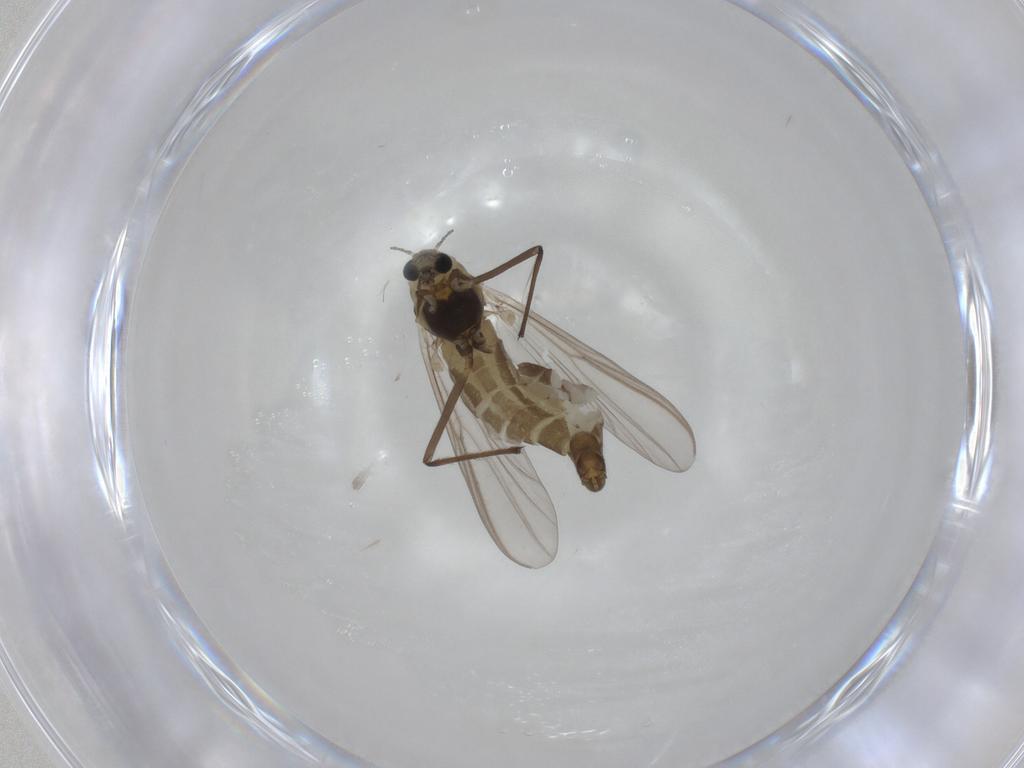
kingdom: Animalia
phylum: Arthropoda
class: Insecta
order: Diptera
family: Chironomidae
